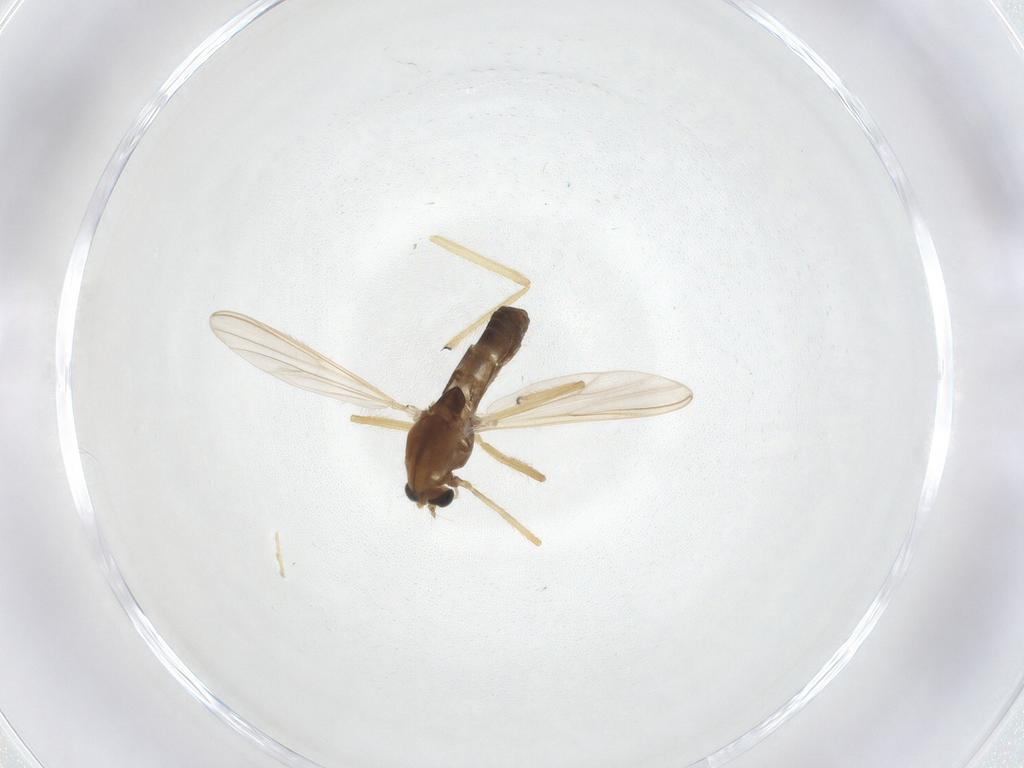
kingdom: Animalia
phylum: Arthropoda
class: Insecta
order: Diptera
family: Chironomidae
